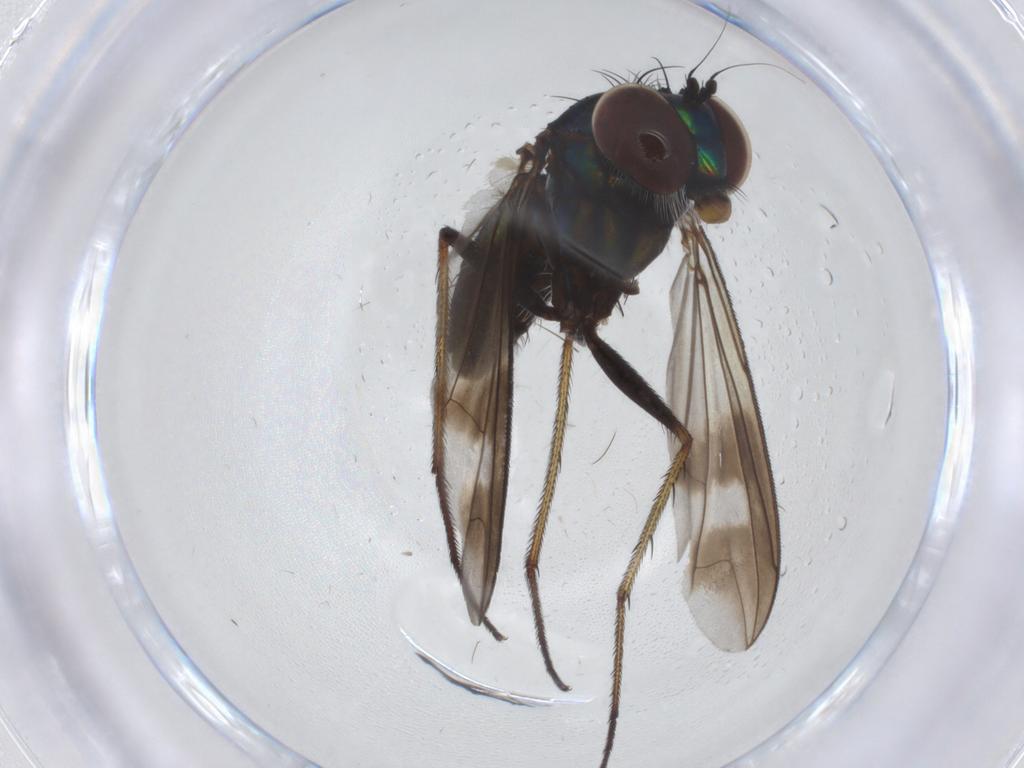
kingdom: Animalia
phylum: Arthropoda
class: Insecta
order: Diptera
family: Dolichopodidae
